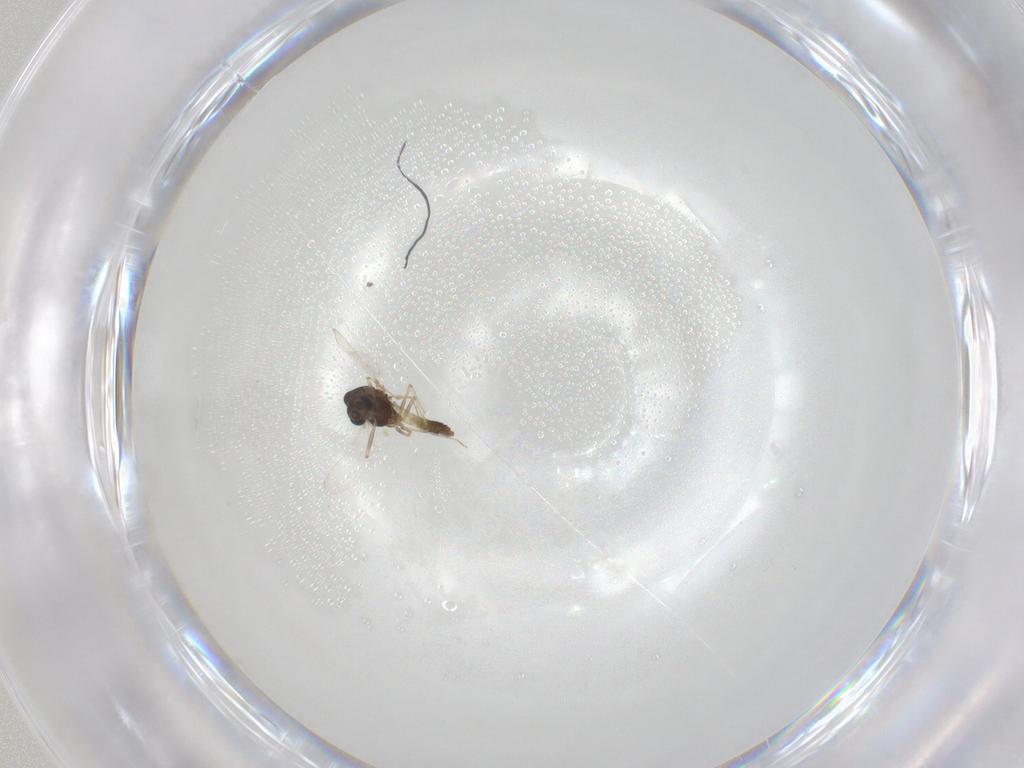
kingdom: Animalia
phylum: Arthropoda
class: Insecta
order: Diptera
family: Chironomidae
